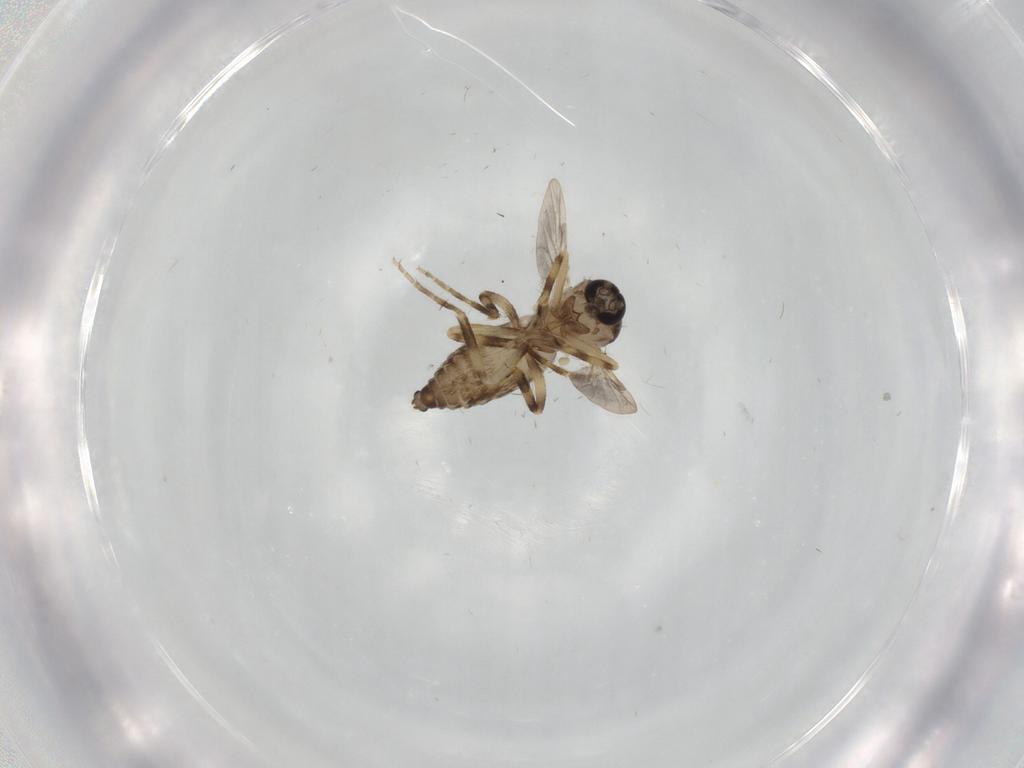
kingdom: Animalia
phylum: Arthropoda
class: Insecta
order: Diptera
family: Ceratopogonidae
